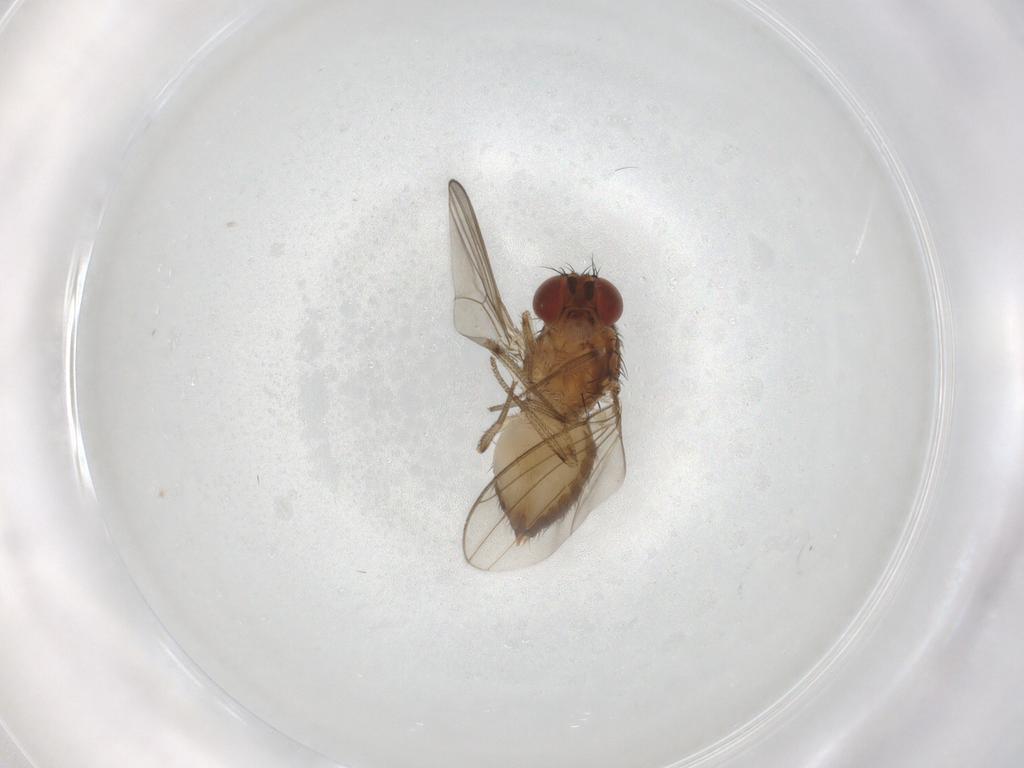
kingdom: Animalia
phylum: Arthropoda
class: Insecta
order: Diptera
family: Drosophilidae
